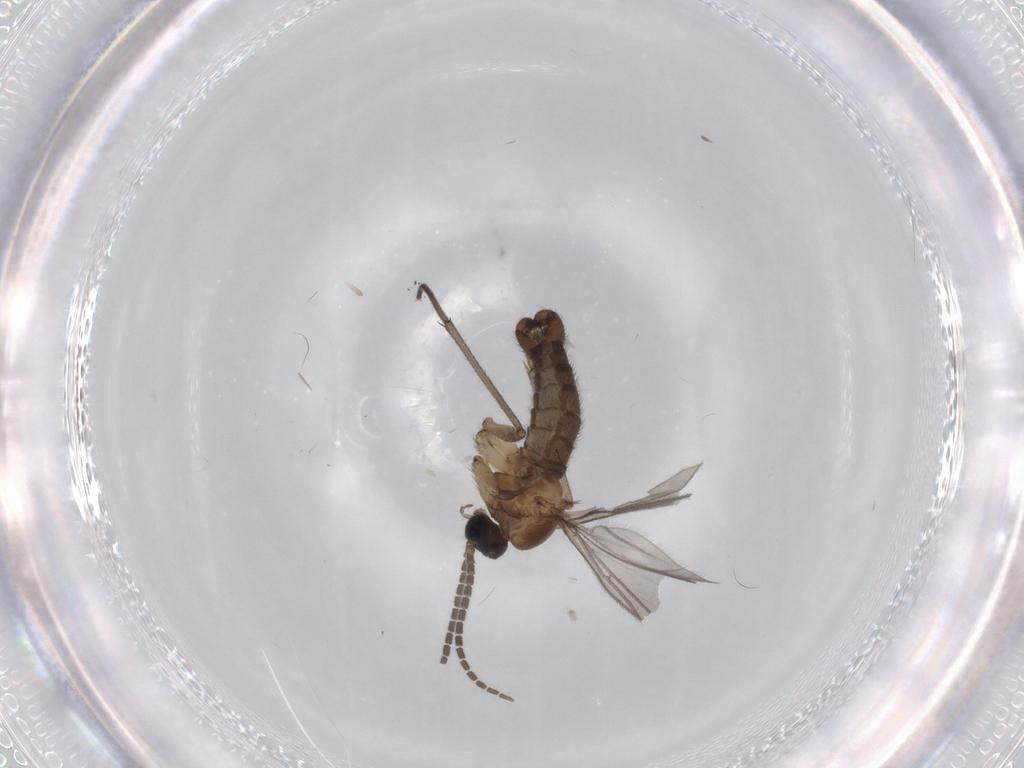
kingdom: Animalia
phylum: Arthropoda
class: Insecta
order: Diptera
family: Sciaridae
